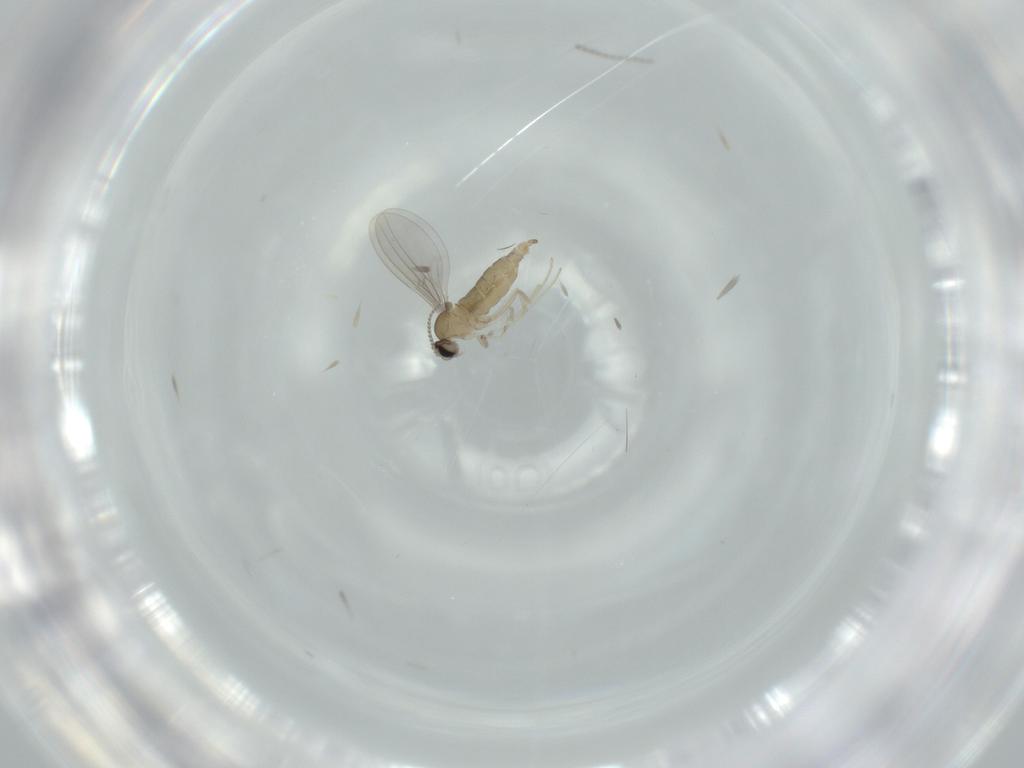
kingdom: Animalia
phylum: Arthropoda
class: Insecta
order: Diptera
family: Cecidomyiidae
